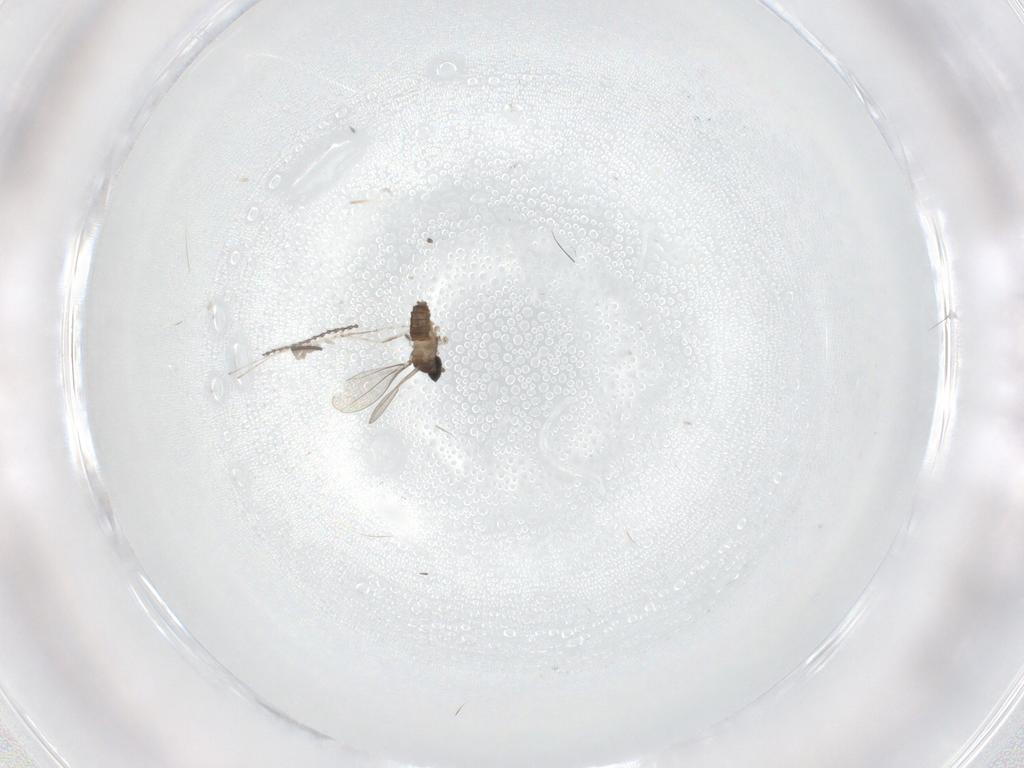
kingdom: Animalia
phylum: Arthropoda
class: Insecta
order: Diptera
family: Cecidomyiidae
